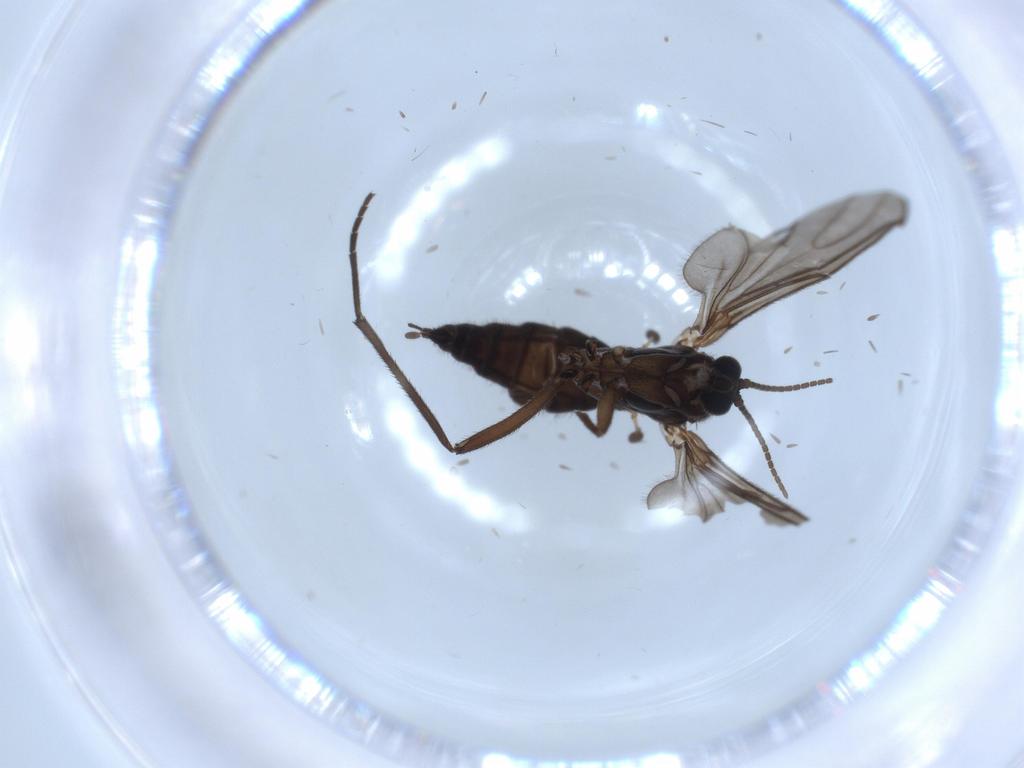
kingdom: Animalia
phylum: Arthropoda
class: Insecta
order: Diptera
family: Sciaridae
